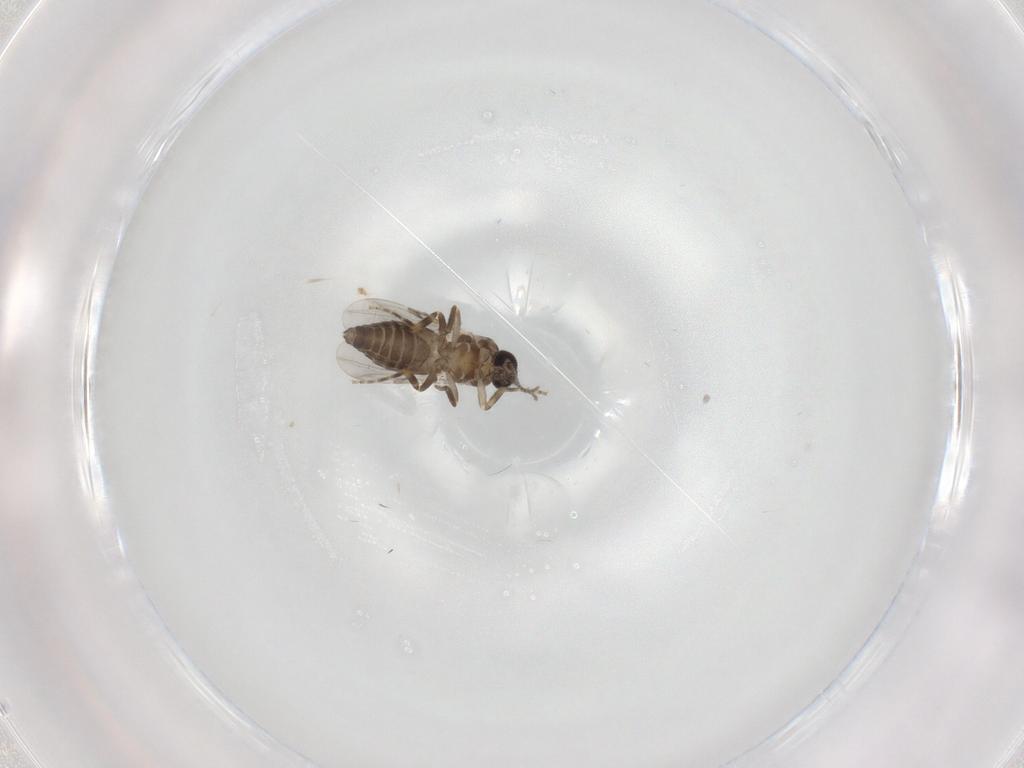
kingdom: Animalia
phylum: Arthropoda
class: Insecta
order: Diptera
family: Ceratopogonidae
